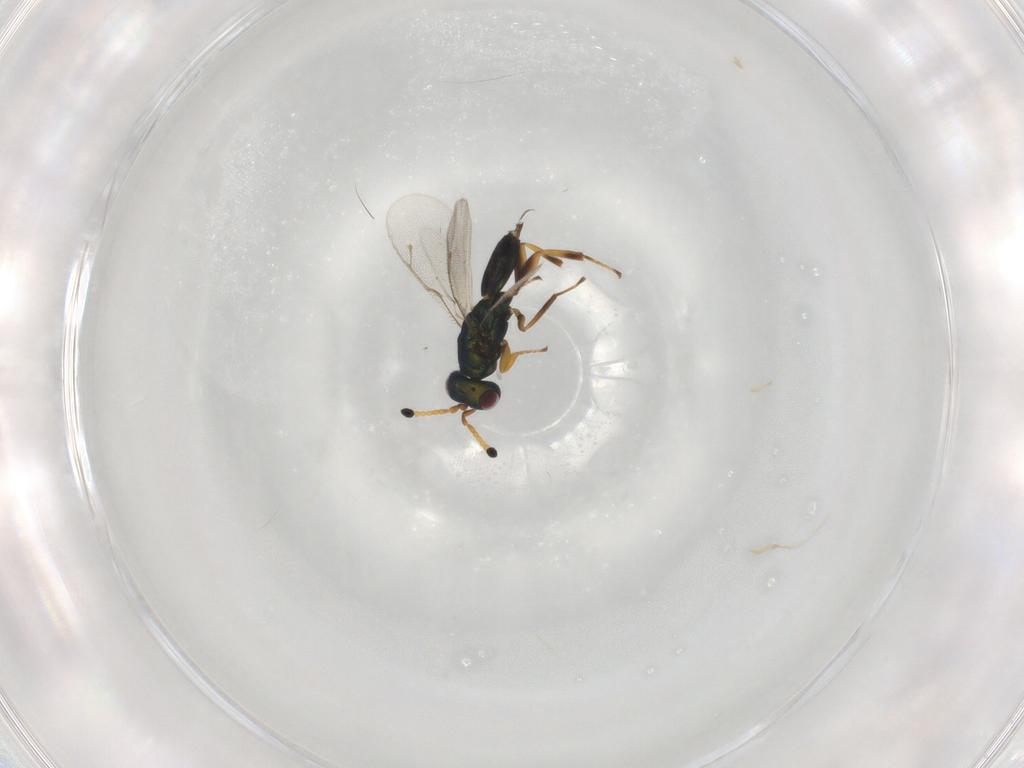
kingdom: Animalia
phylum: Arthropoda
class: Insecta
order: Hymenoptera
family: Pteromalidae
